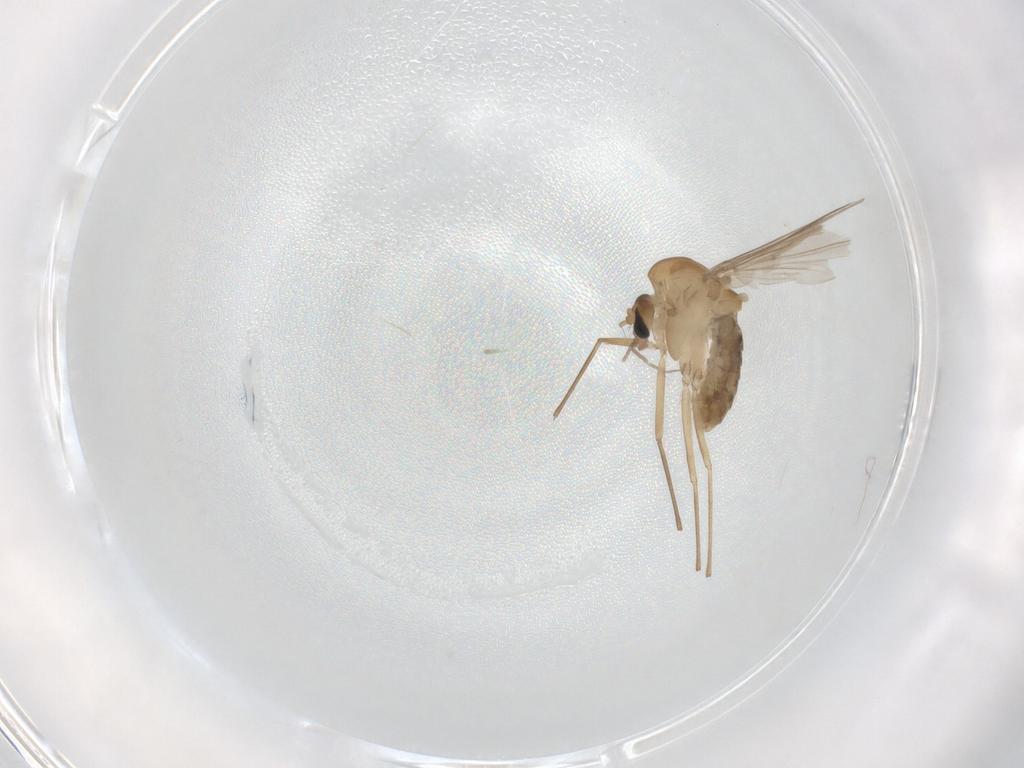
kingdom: Animalia
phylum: Arthropoda
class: Insecta
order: Diptera
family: Chironomidae
